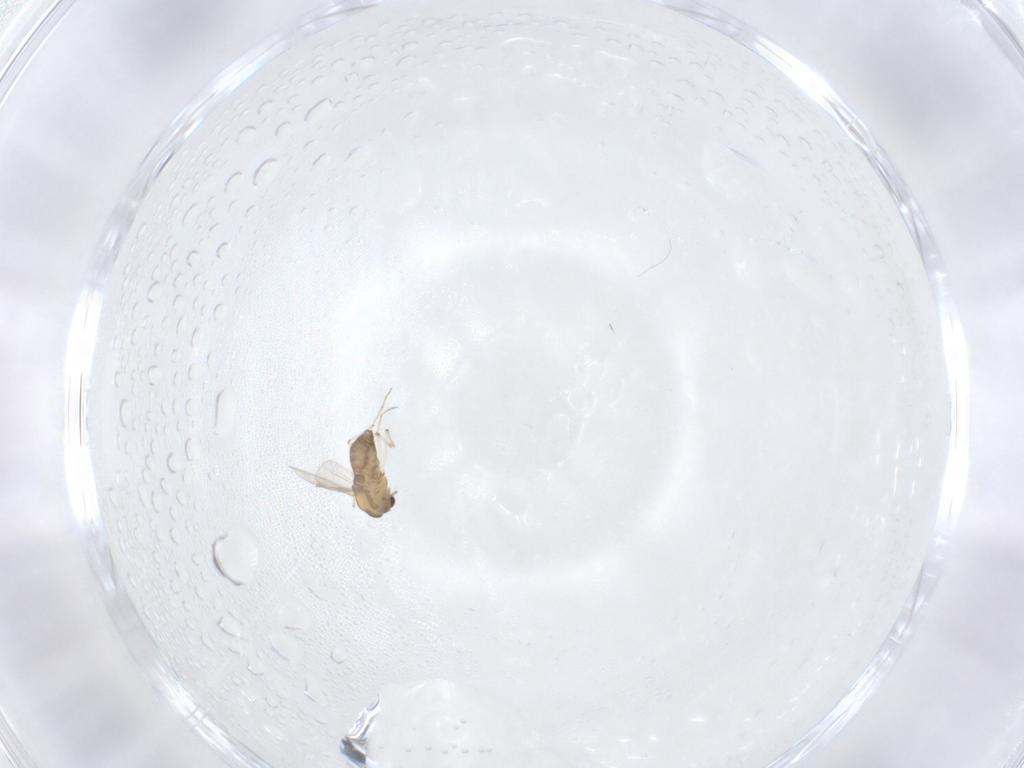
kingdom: Animalia
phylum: Arthropoda
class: Insecta
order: Diptera
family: Chironomidae
